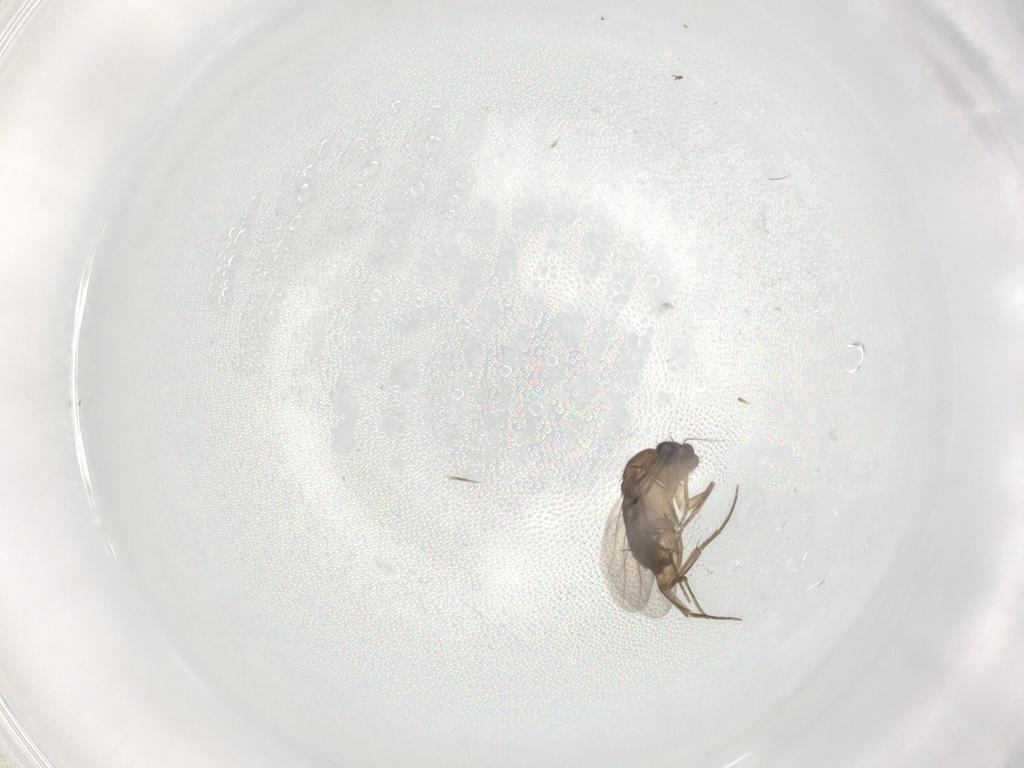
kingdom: Animalia
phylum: Arthropoda
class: Insecta
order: Diptera
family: Phoridae
